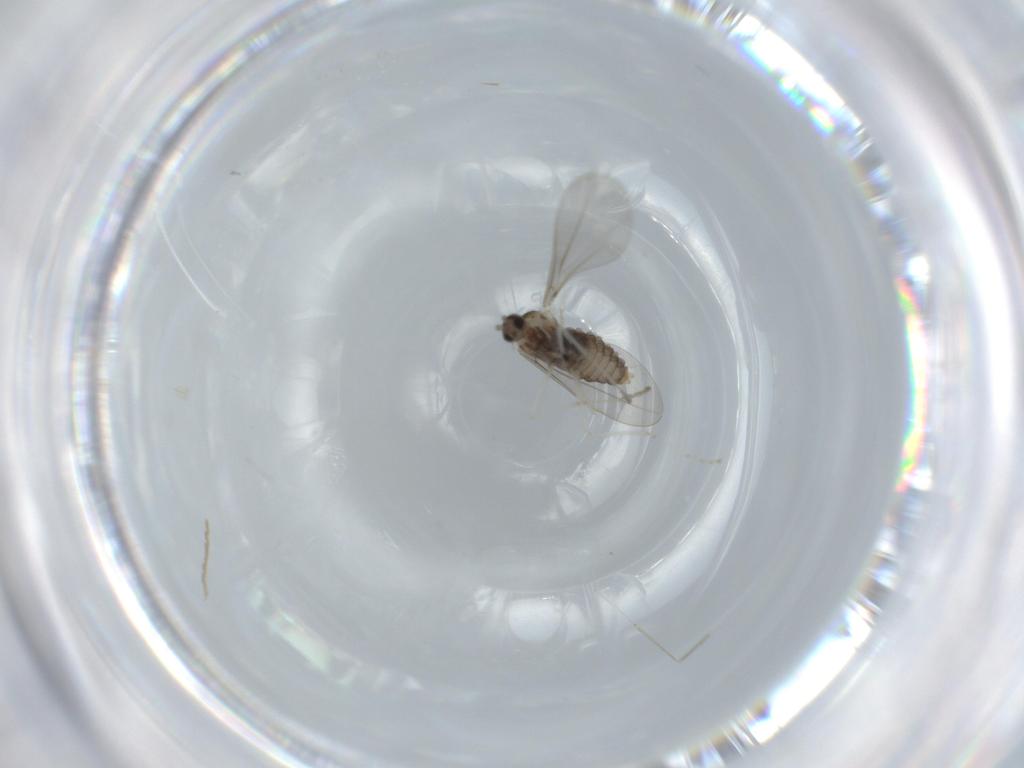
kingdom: Animalia
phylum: Arthropoda
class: Insecta
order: Diptera
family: Cecidomyiidae
